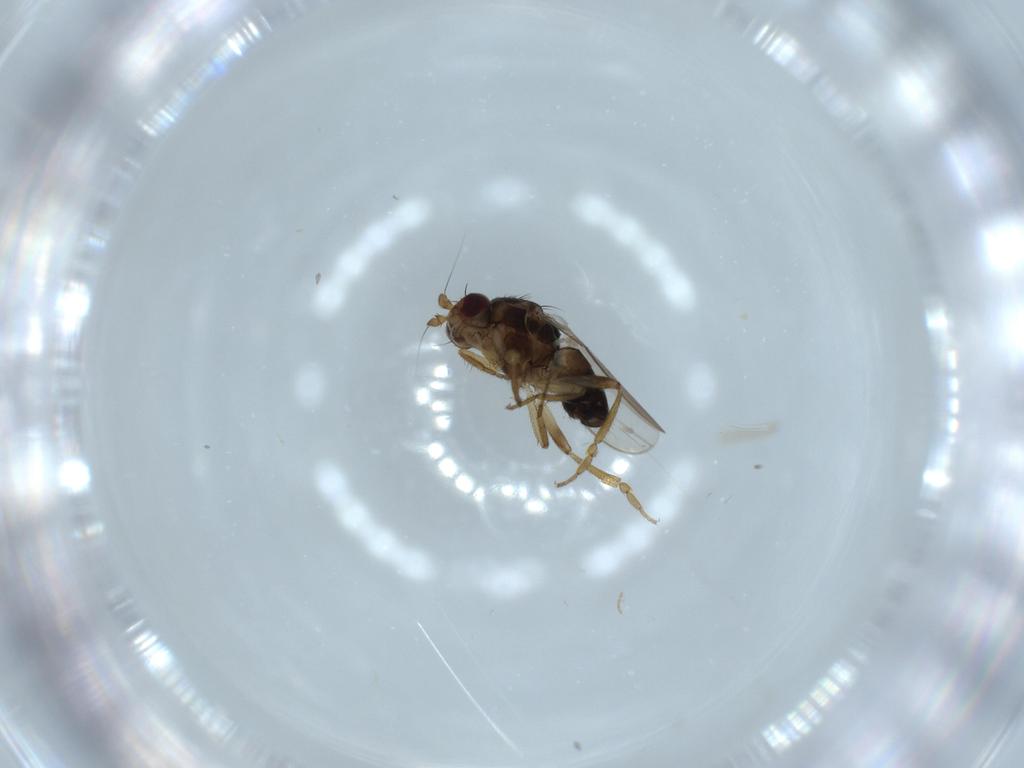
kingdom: Animalia
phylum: Arthropoda
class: Insecta
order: Diptera
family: Sphaeroceridae
